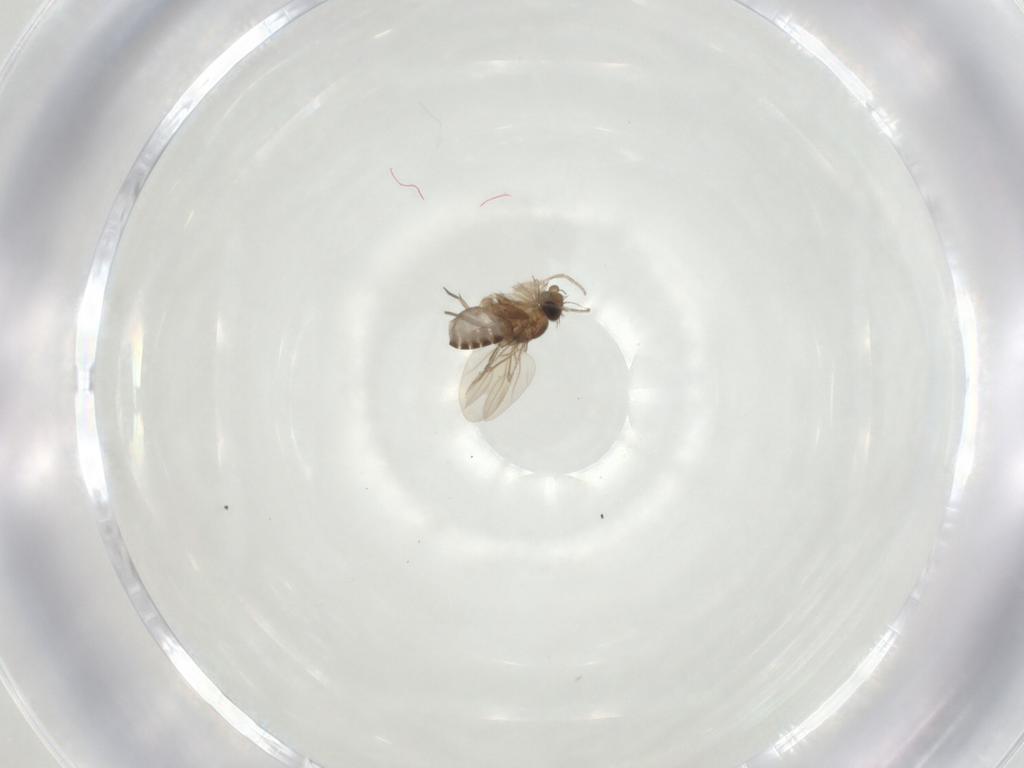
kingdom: Animalia
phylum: Arthropoda
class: Insecta
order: Diptera
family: Phoridae
